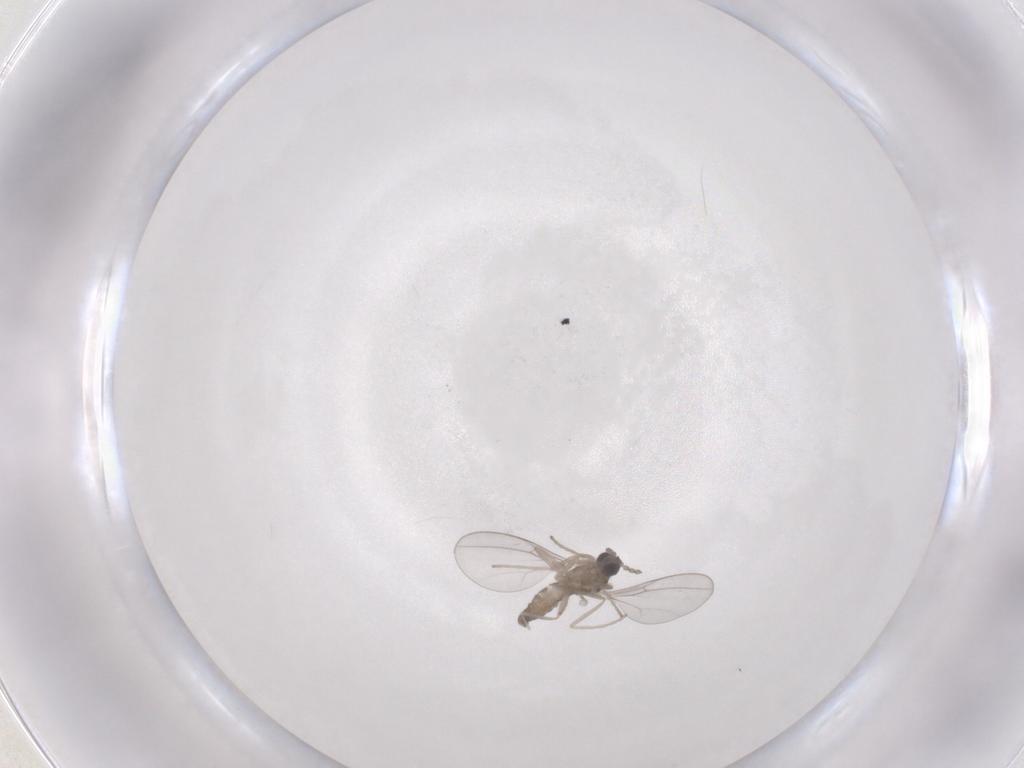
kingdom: Animalia
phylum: Arthropoda
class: Insecta
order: Diptera
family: Cecidomyiidae
